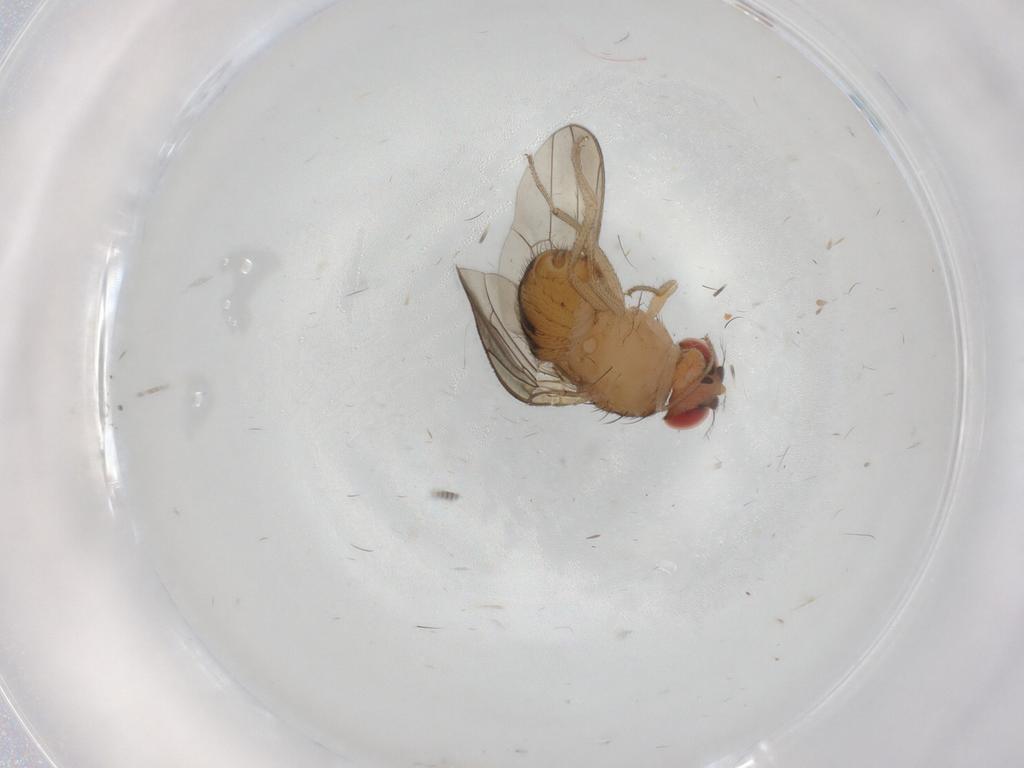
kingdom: Animalia
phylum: Arthropoda
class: Insecta
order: Diptera
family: Drosophilidae
